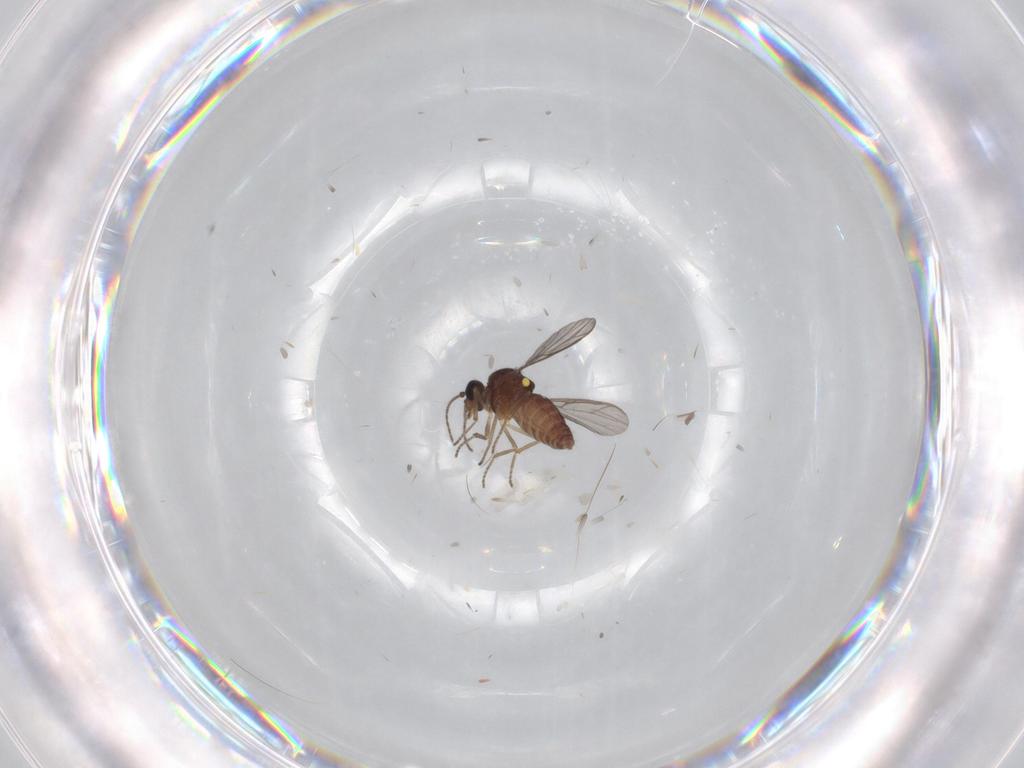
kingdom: Animalia
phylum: Arthropoda
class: Insecta
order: Diptera
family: Ceratopogonidae
